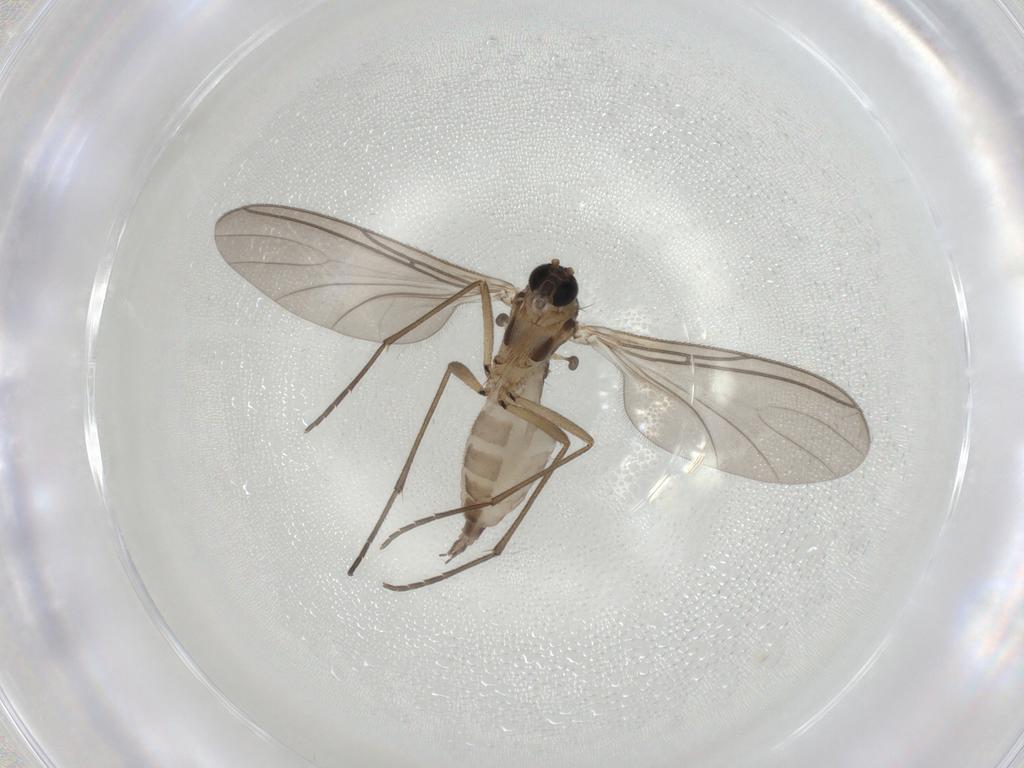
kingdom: Animalia
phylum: Arthropoda
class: Insecta
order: Diptera
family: Sciaridae
